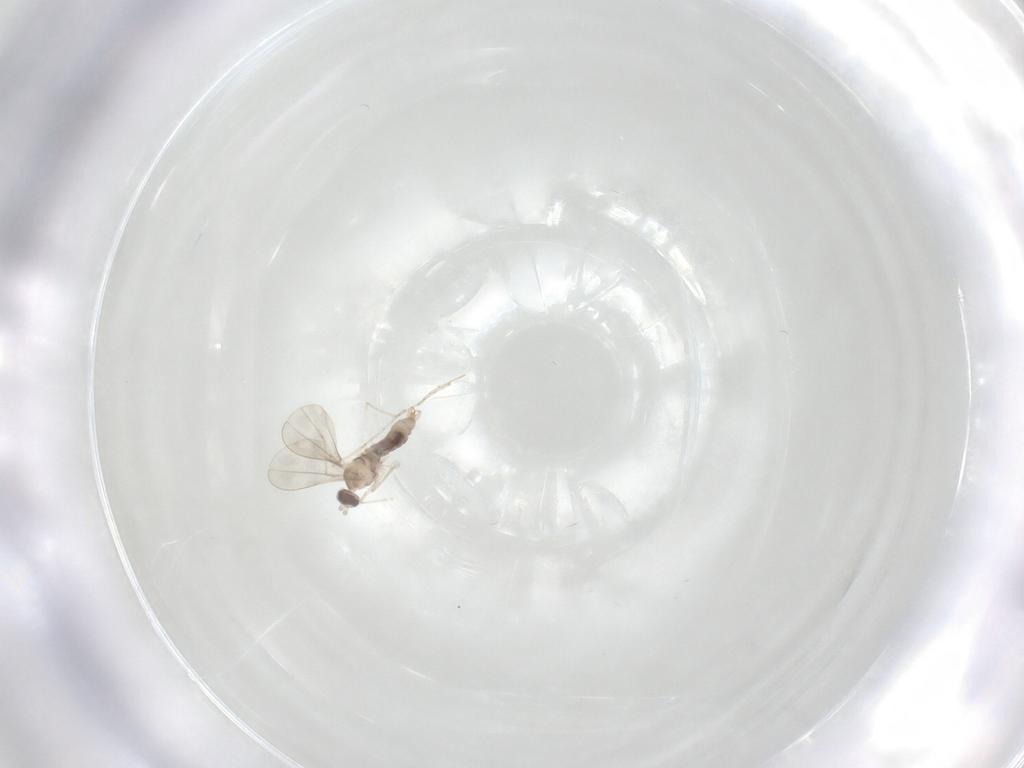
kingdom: Animalia
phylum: Arthropoda
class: Insecta
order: Diptera
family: Cecidomyiidae
